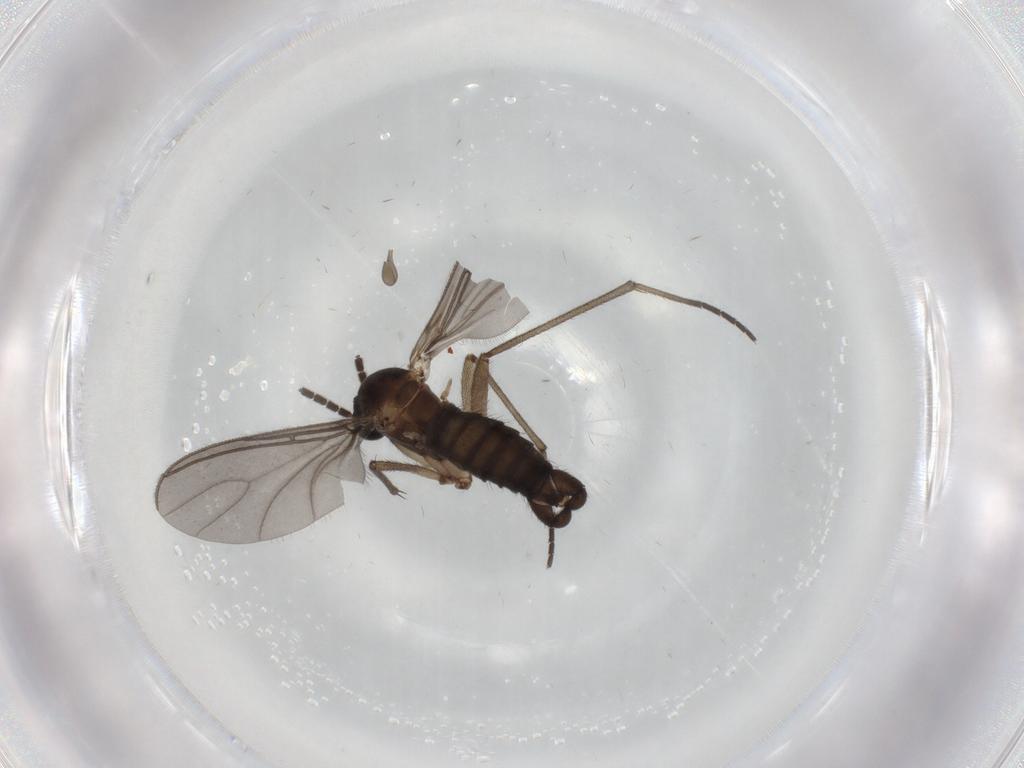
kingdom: Animalia
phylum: Arthropoda
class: Insecta
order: Diptera
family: Sciaridae
